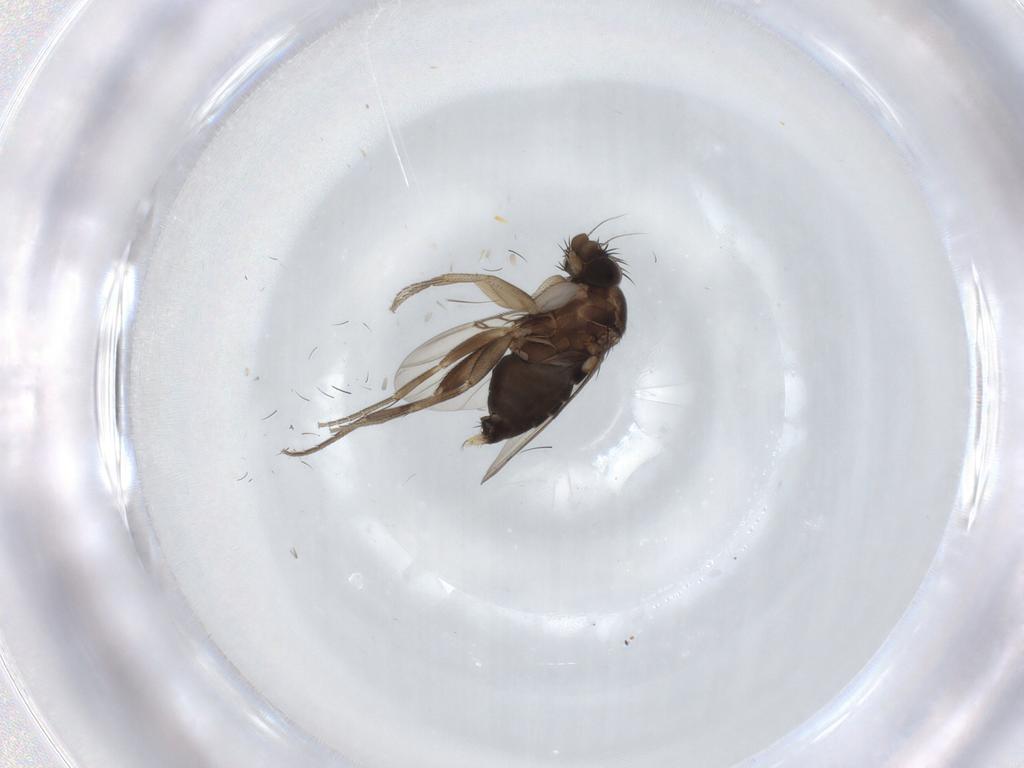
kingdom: Animalia
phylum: Arthropoda
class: Insecta
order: Diptera
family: Phoridae
